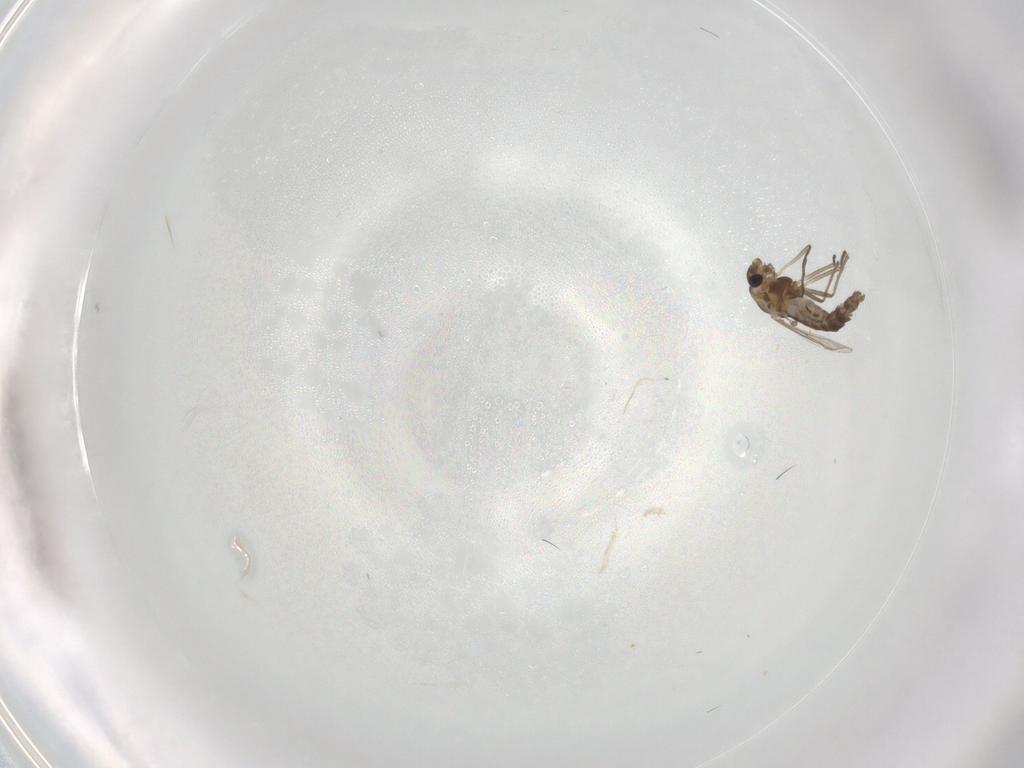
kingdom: Animalia
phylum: Arthropoda
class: Insecta
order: Diptera
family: Chironomidae
